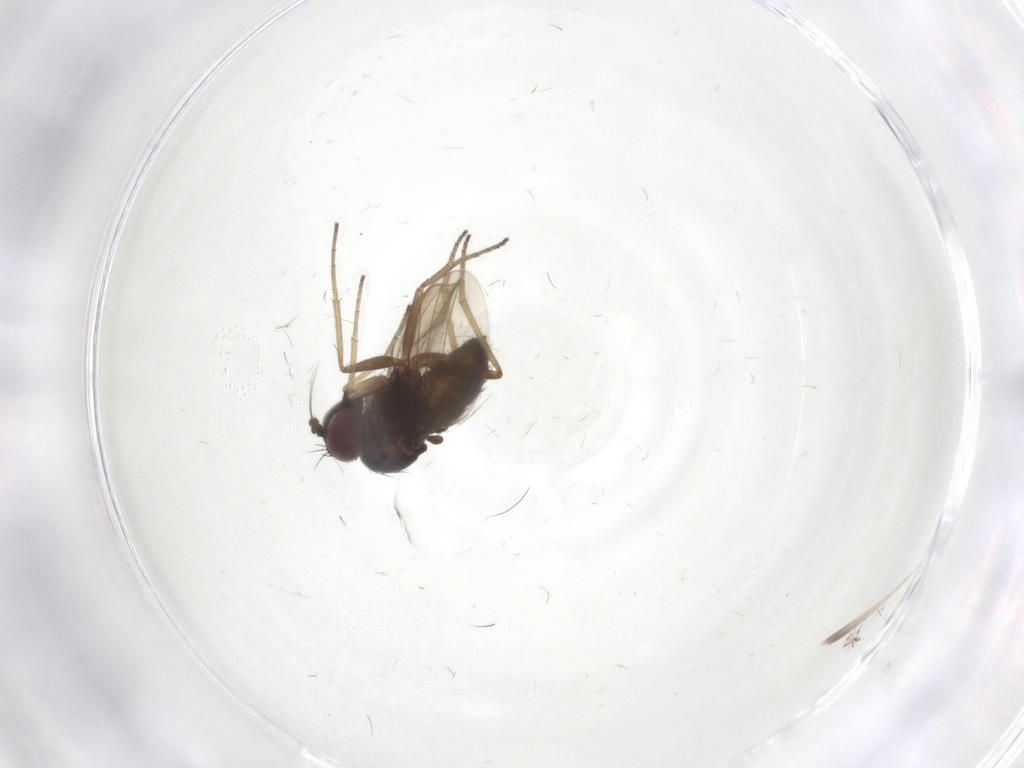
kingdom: Animalia
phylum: Arthropoda
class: Insecta
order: Diptera
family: Dolichopodidae
